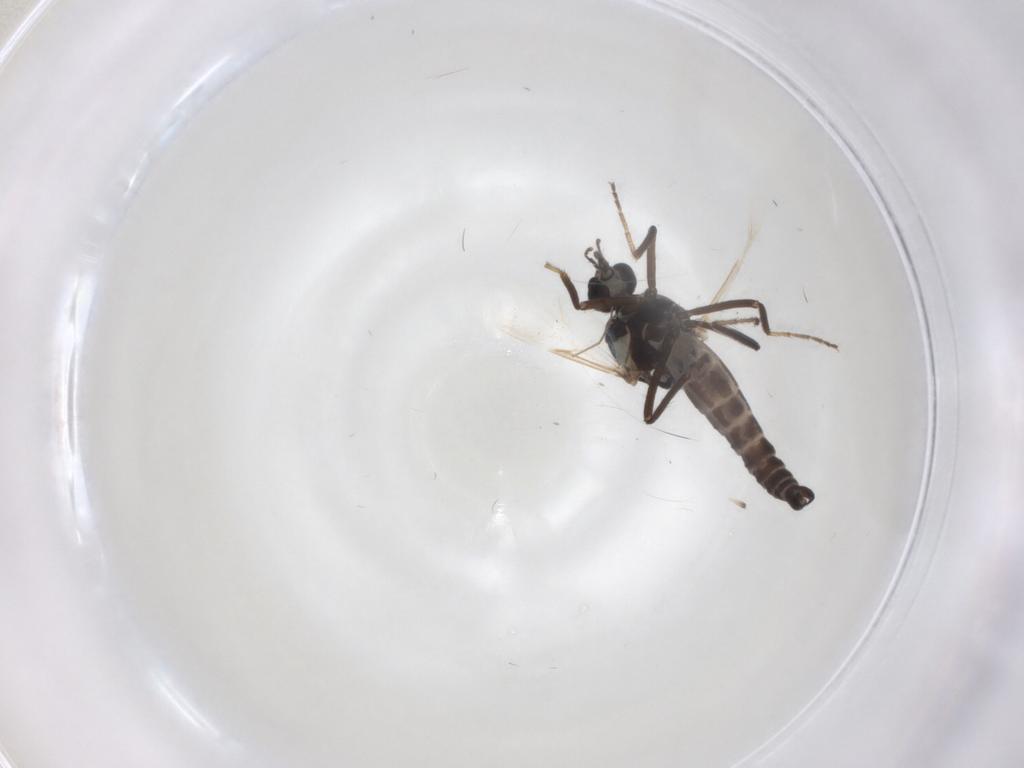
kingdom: Animalia
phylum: Arthropoda
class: Insecta
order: Diptera
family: Ceratopogonidae
